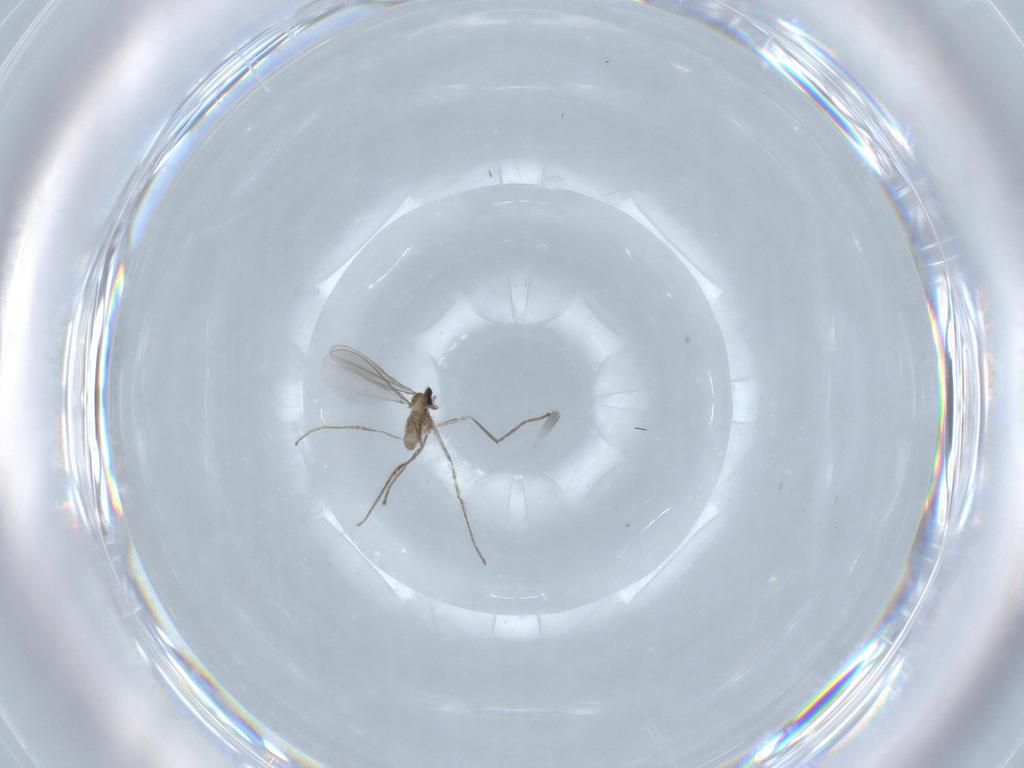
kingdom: Animalia
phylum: Arthropoda
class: Insecta
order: Diptera
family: Cecidomyiidae
